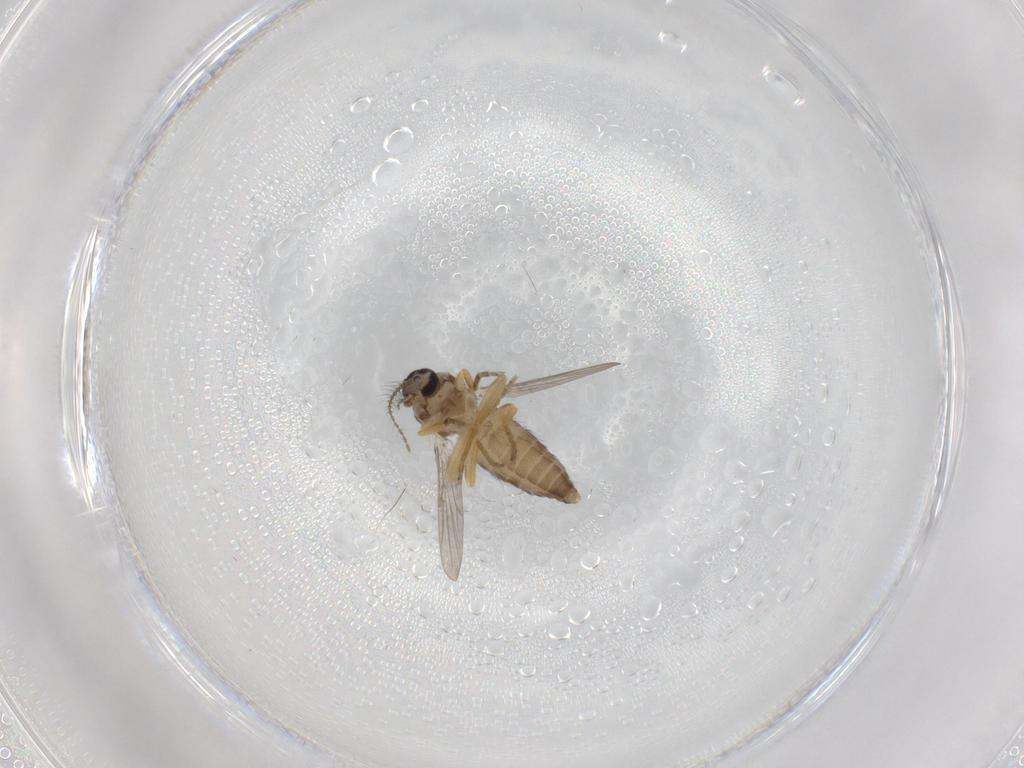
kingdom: Animalia
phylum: Arthropoda
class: Insecta
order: Diptera
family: Ceratopogonidae
